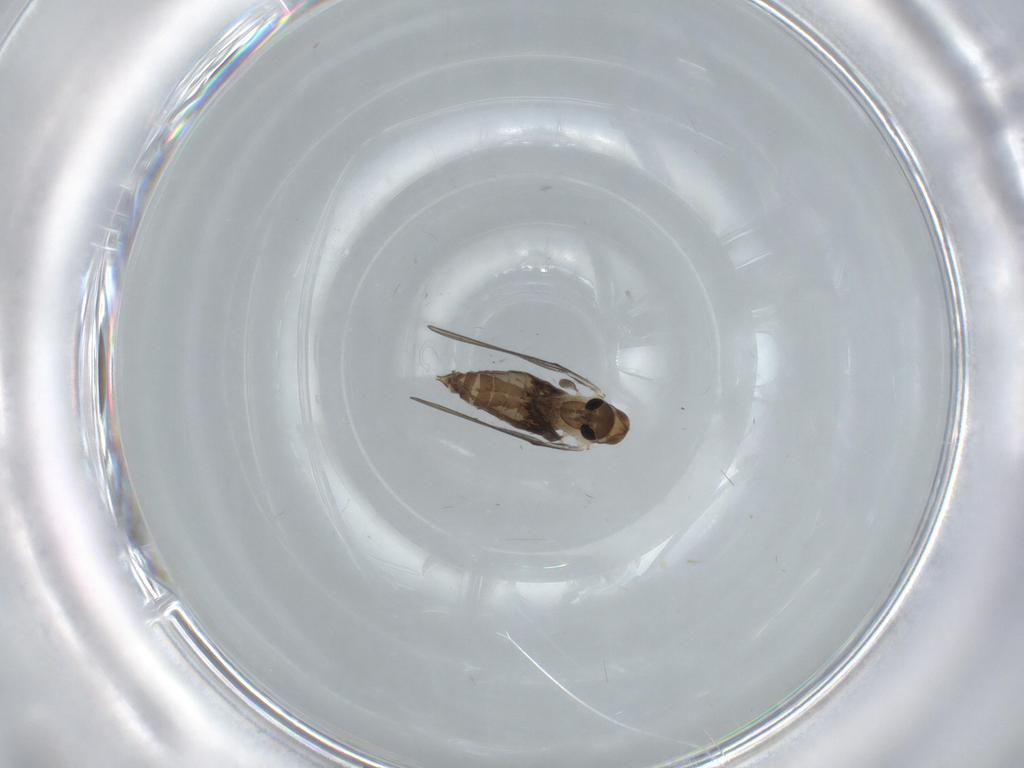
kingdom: Animalia
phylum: Arthropoda
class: Insecta
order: Diptera
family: Psychodidae
